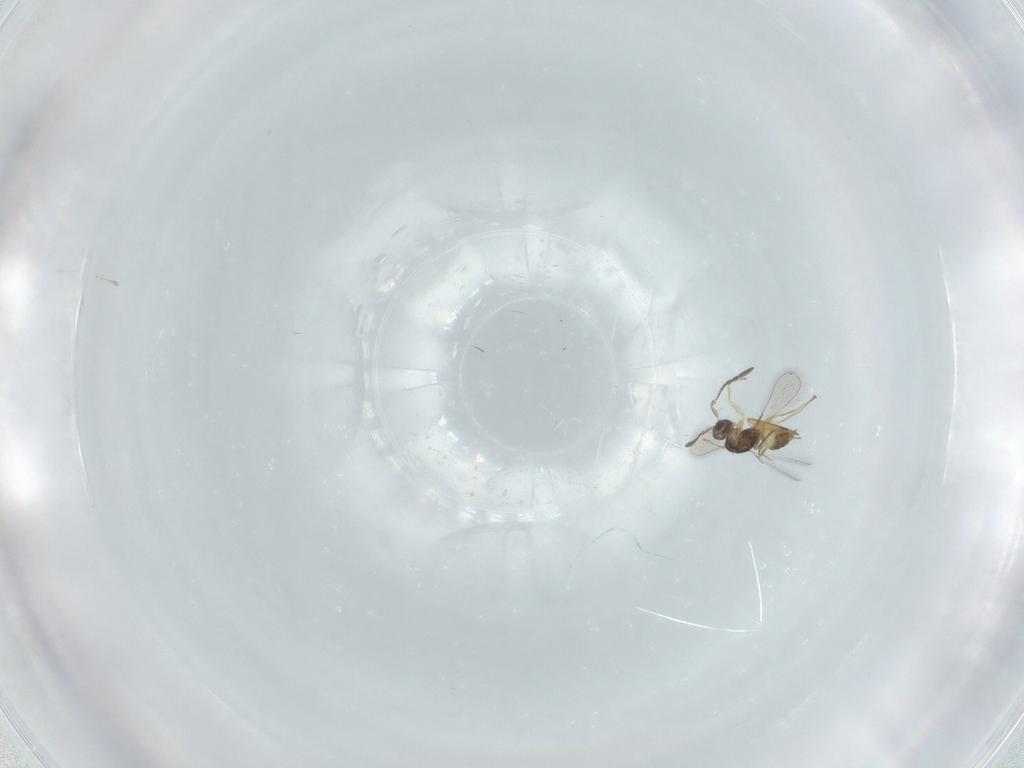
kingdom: Animalia
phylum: Arthropoda
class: Insecta
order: Hymenoptera
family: Mymaridae
